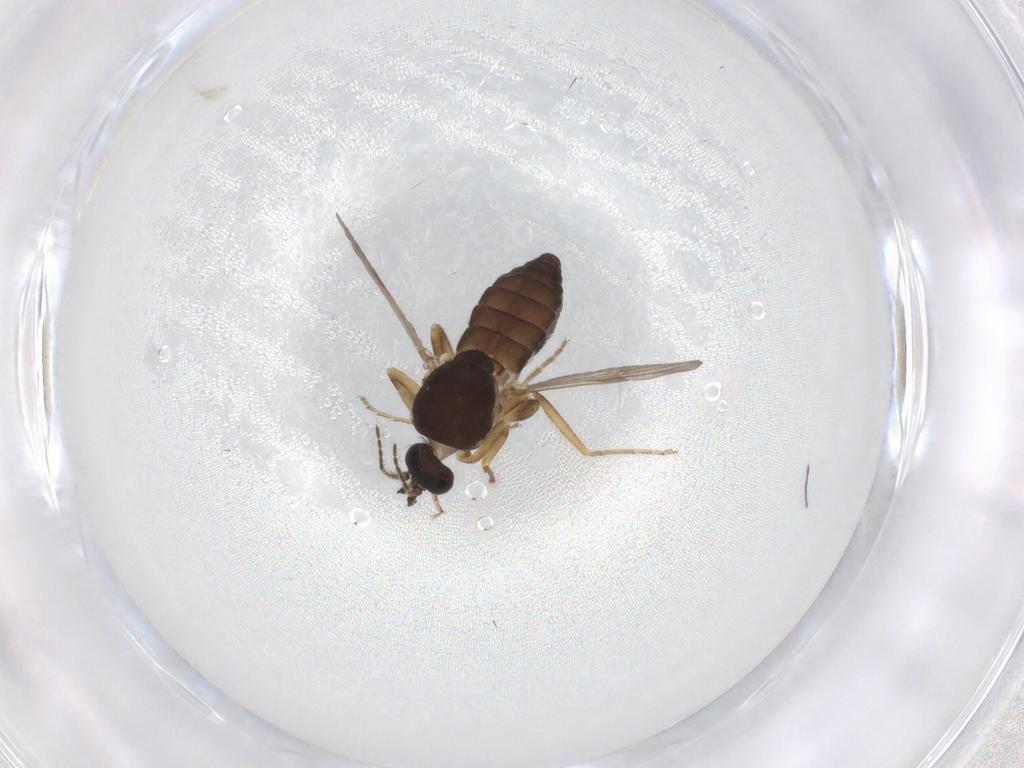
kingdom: Animalia
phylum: Arthropoda
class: Insecta
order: Diptera
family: Ceratopogonidae
